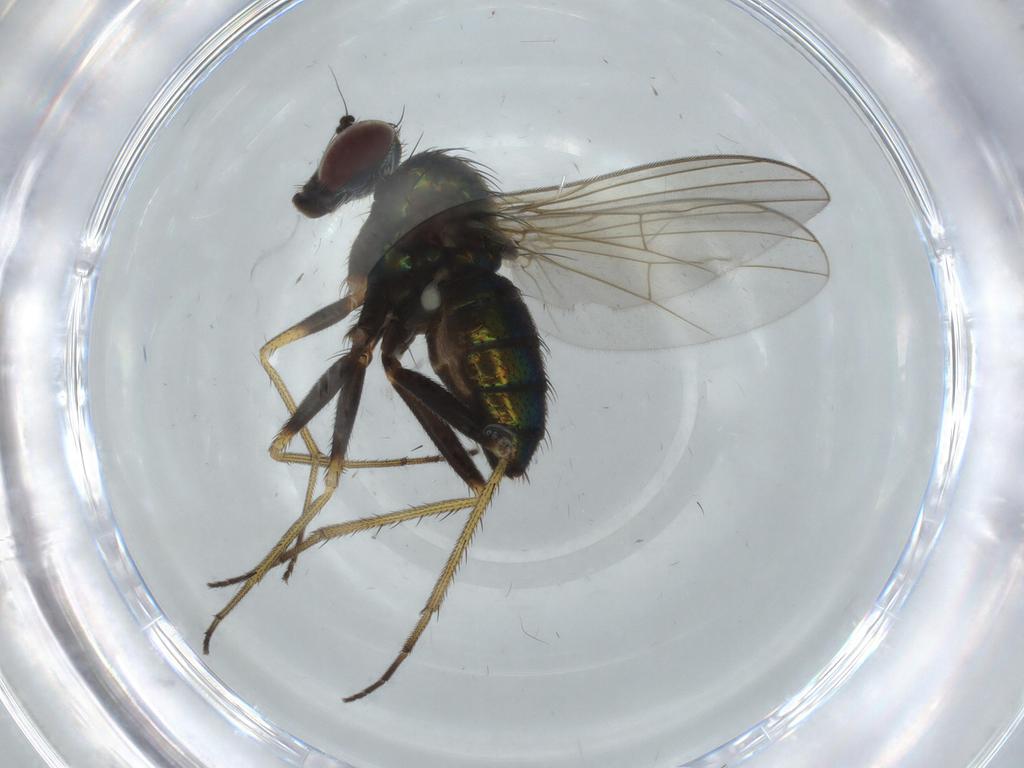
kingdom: Animalia
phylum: Arthropoda
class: Insecta
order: Diptera
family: Dolichopodidae
